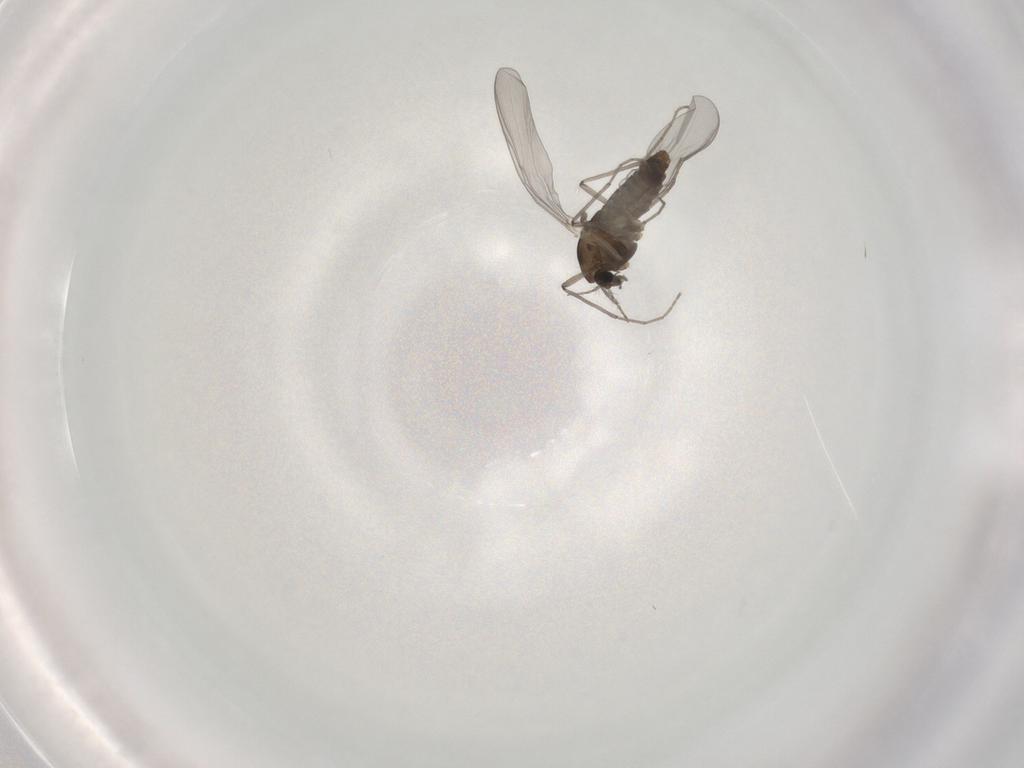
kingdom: Animalia
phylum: Arthropoda
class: Insecta
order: Diptera
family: Chironomidae
